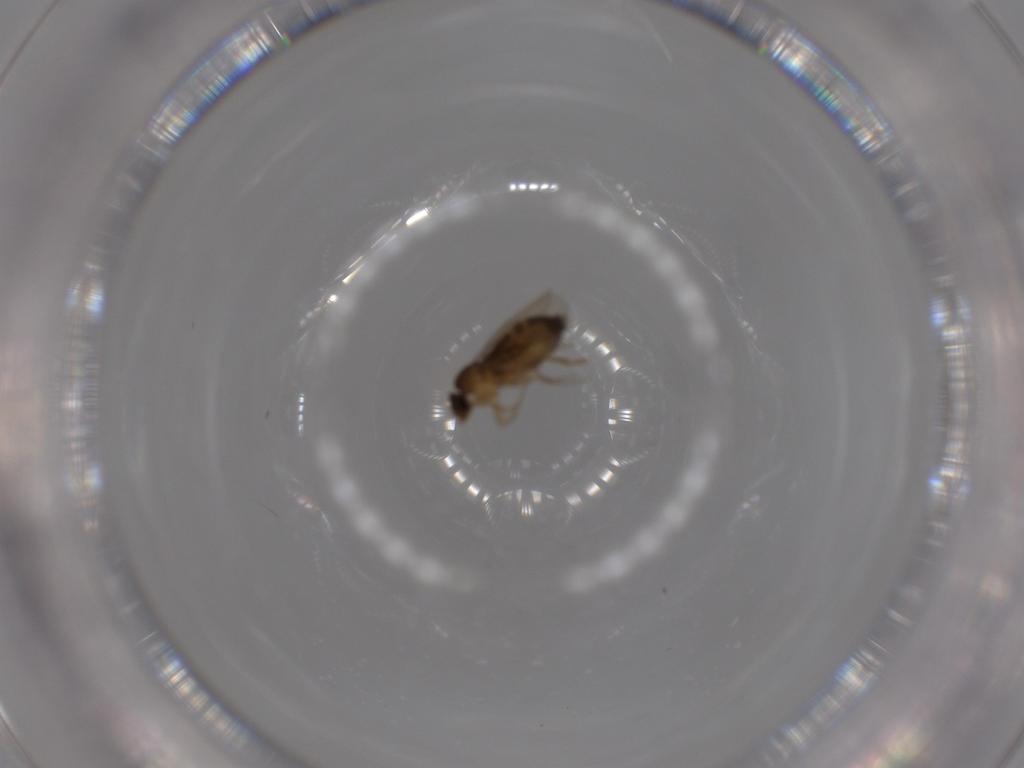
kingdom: Animalia
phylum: Arthropoda
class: Insecta
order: Diptera
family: Phoridae
